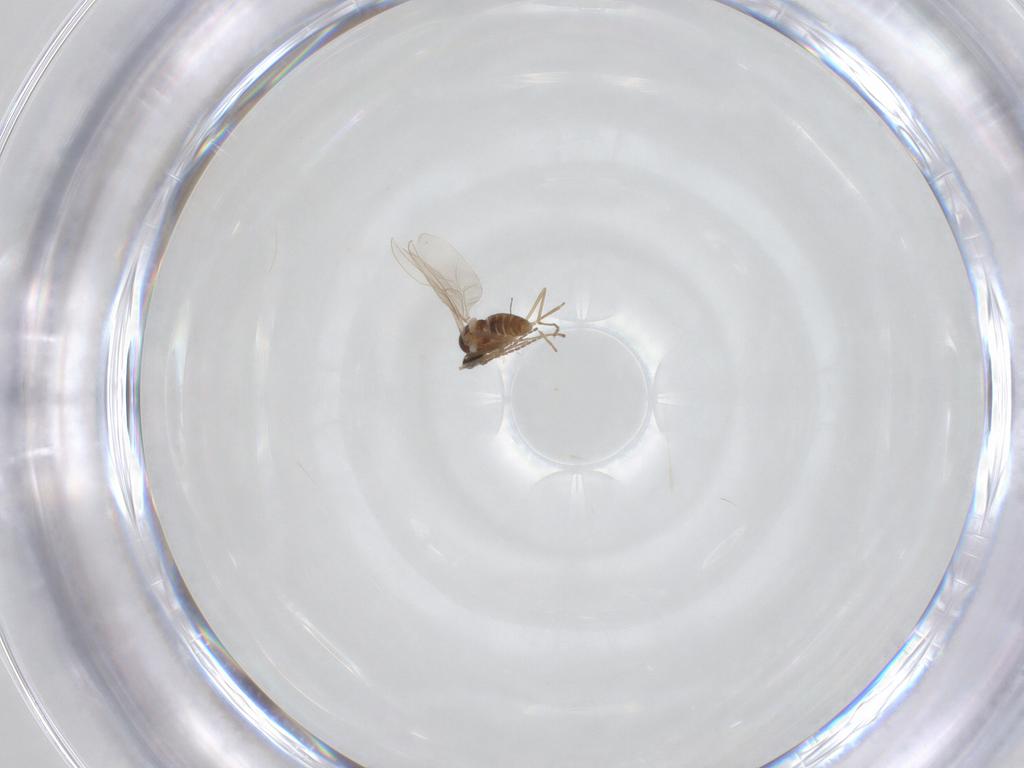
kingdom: Animalia
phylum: Arthropoda
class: Insecta
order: Diptera
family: Cecidomyiidae
